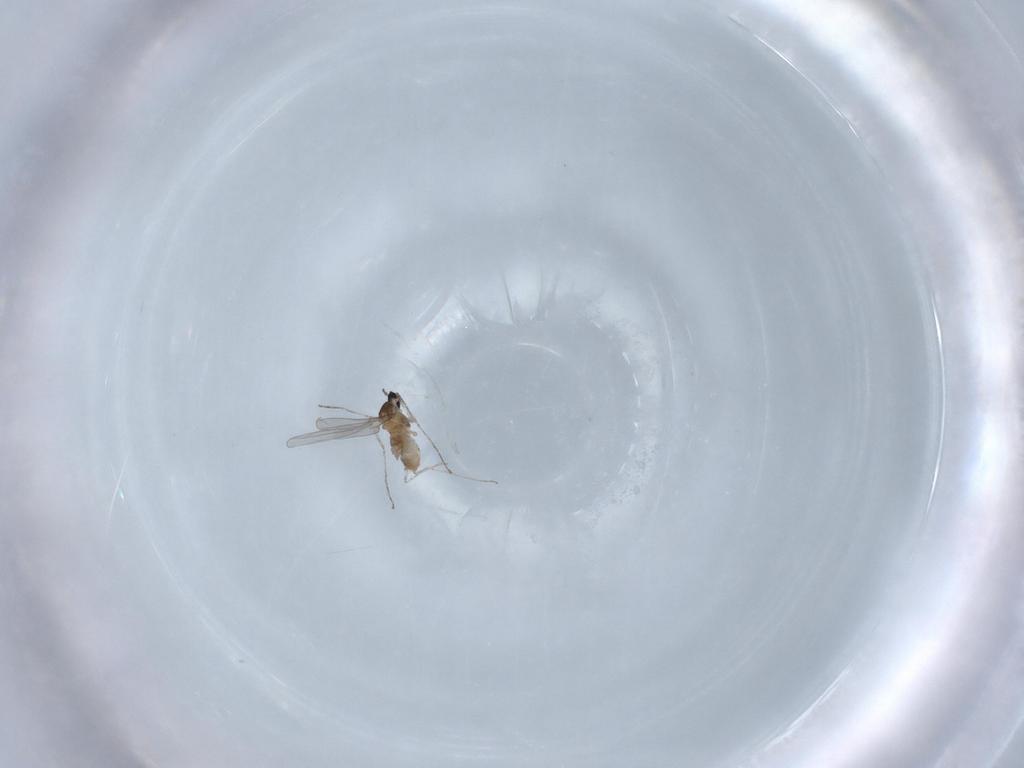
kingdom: Animalia
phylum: Arthropoda
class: Insecta
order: Diptera
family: Cecidomyiidae
